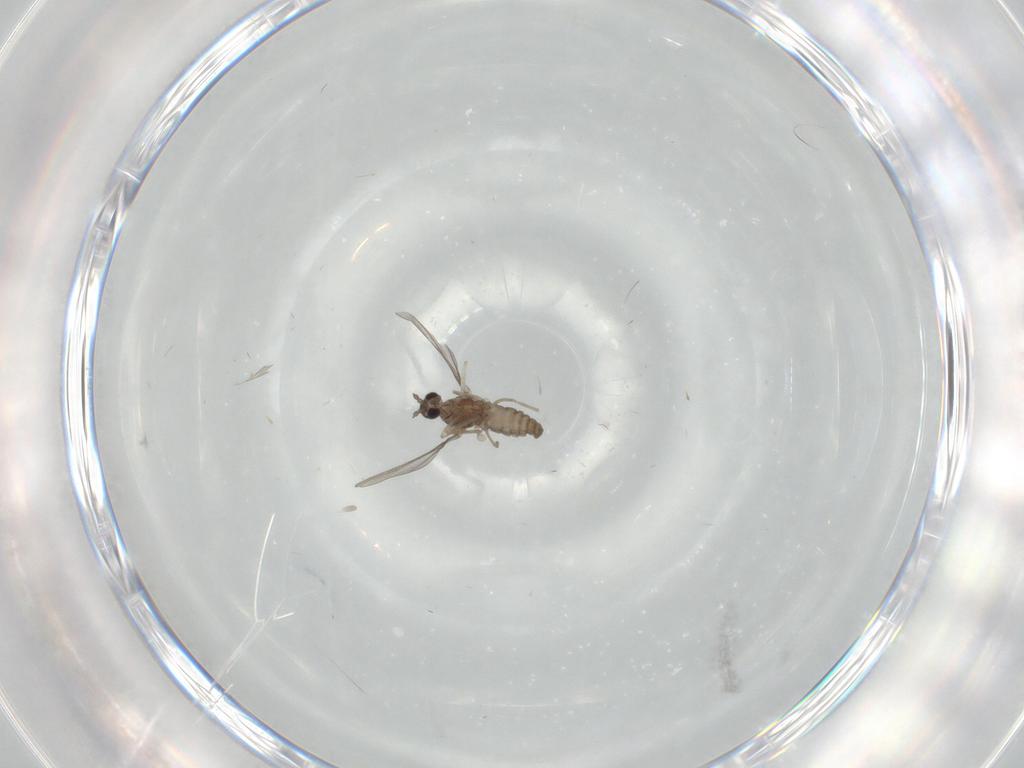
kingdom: Animalia
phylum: Arthropoda
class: Insecta
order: Diptera
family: Cecidomyiidae
